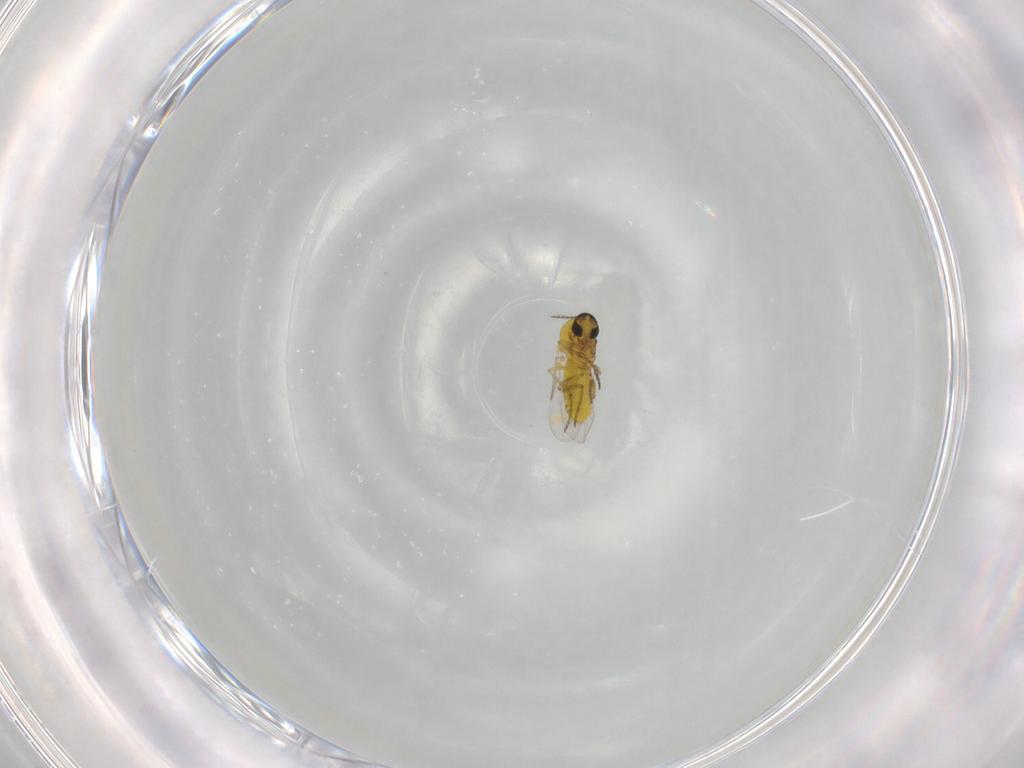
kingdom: Animalia
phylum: Arthropoda
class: Insecta
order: Diptera
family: Ceratopogonidae
